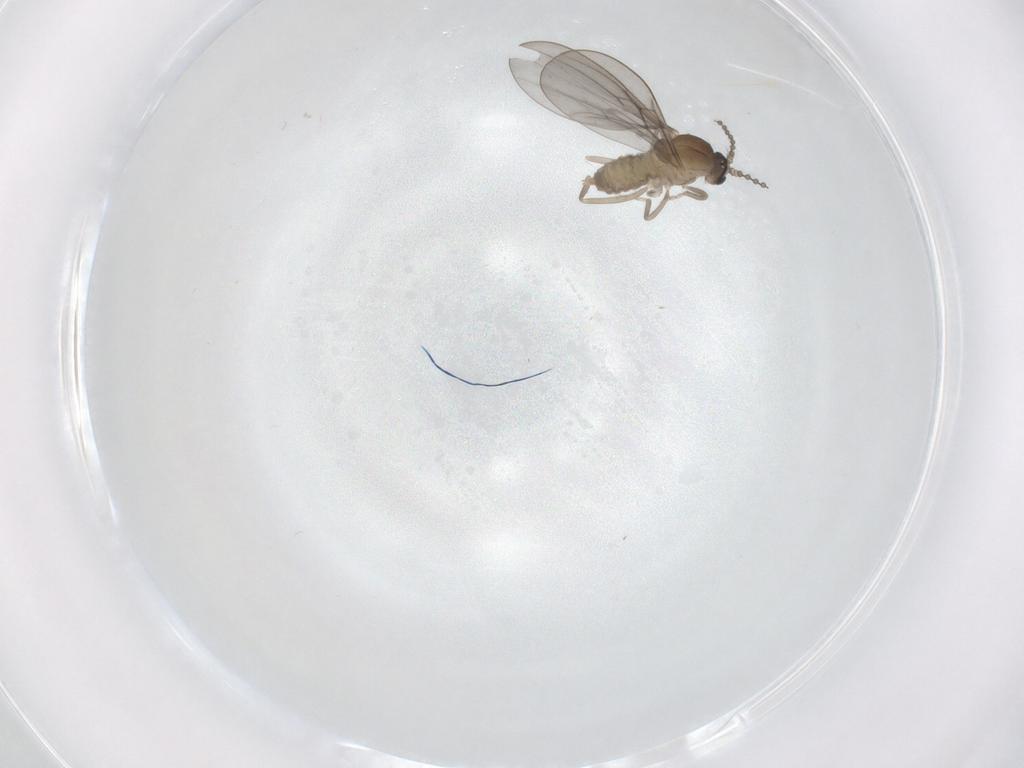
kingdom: Animalia
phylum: Arthropoda
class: Insecta
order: Diptera
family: Cecidomyiidae
